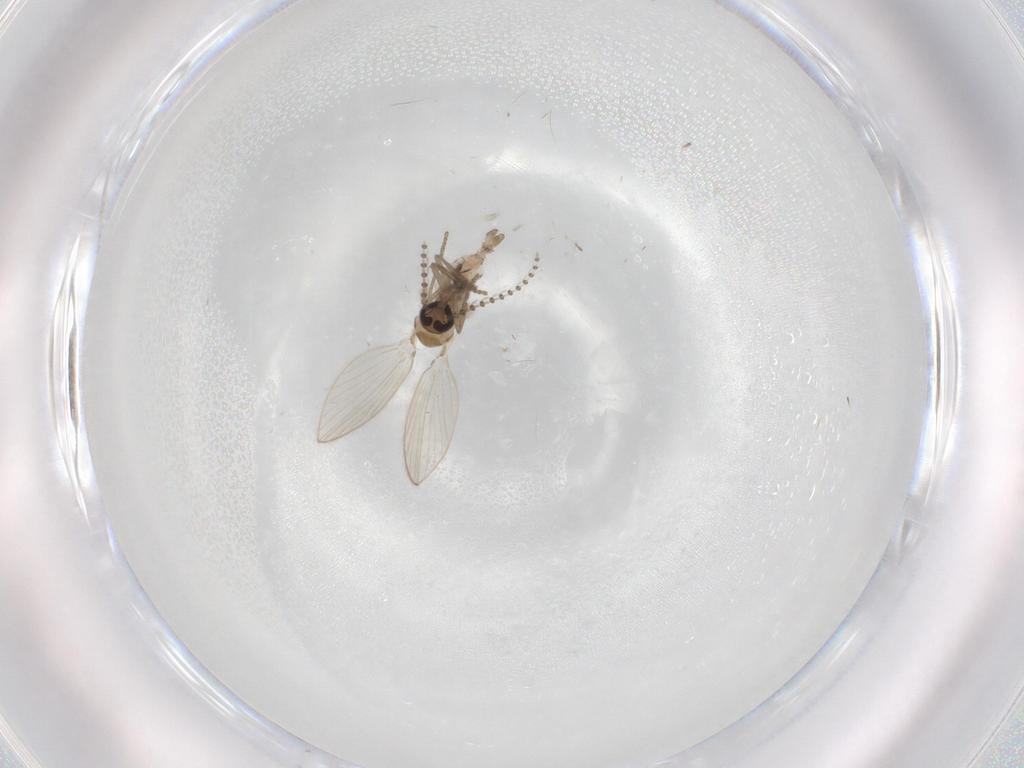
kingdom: Animalia
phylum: Arthropoda
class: Insecta
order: Diptera
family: Psychodidae
